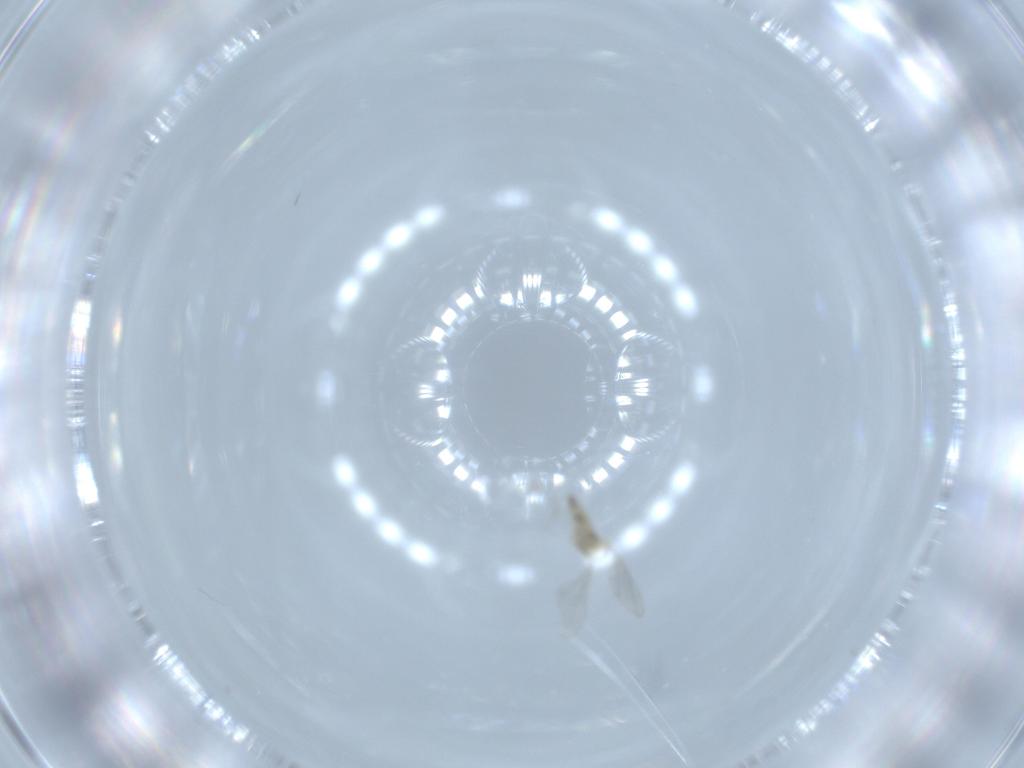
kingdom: Animalia
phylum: Arthropoda
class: Insecta
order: Diptera
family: Cecidomyiidae
